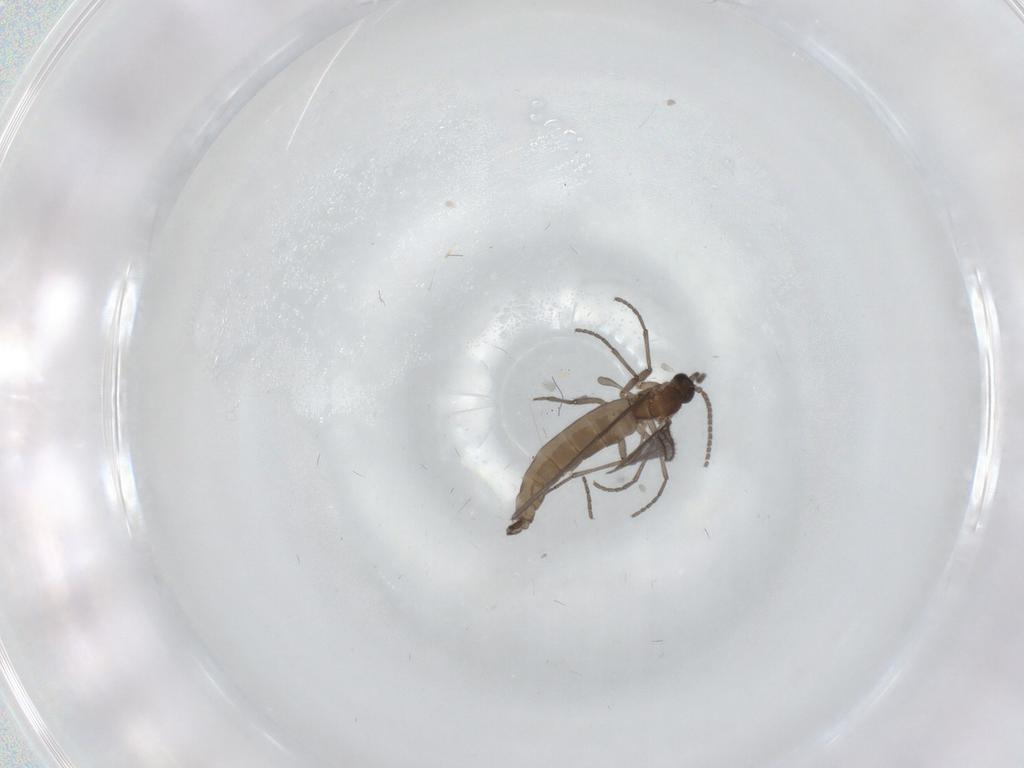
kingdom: Animalia
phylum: Arthropoda
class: Insecta
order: Diptera
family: Sciaridae
